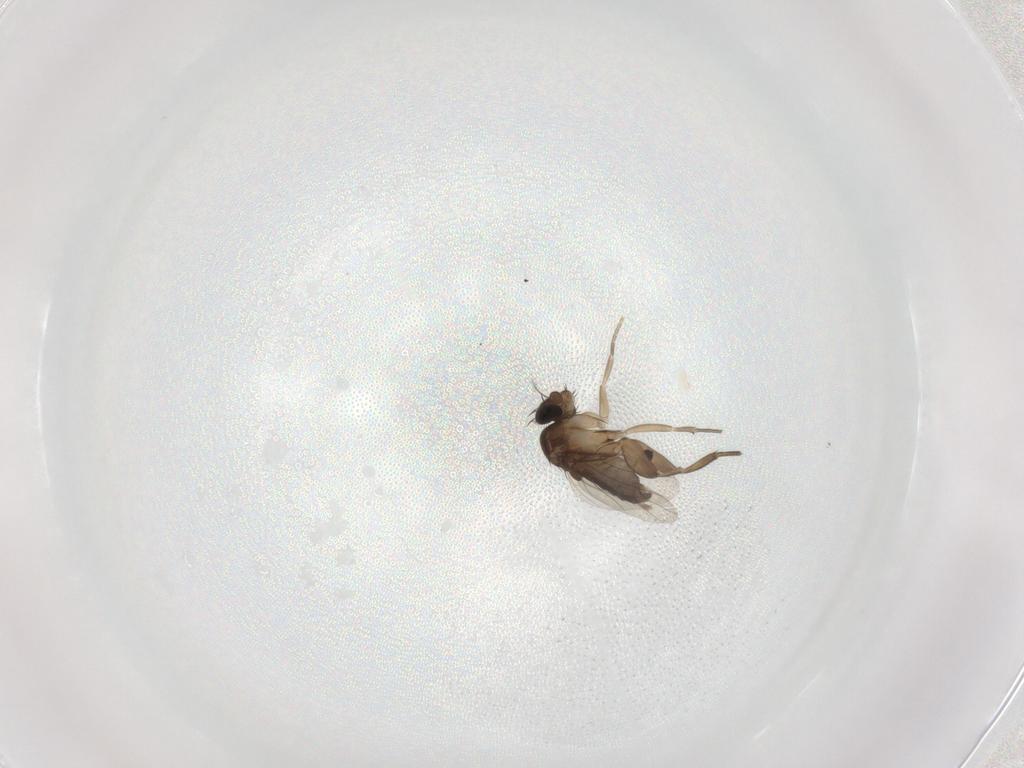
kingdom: Animalia
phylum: Arthropoda
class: Insecta
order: Diptera
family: Phoridae
